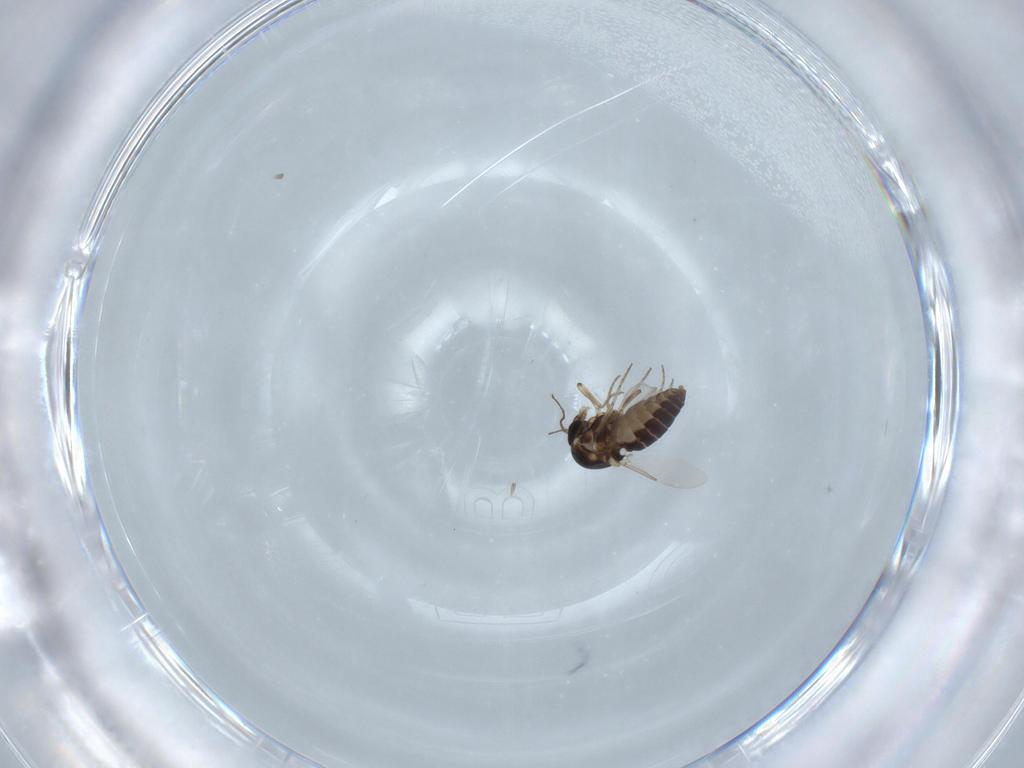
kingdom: Animalia
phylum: Arthropoda
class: Insecta
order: Diptera
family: Ceratopogonidae
